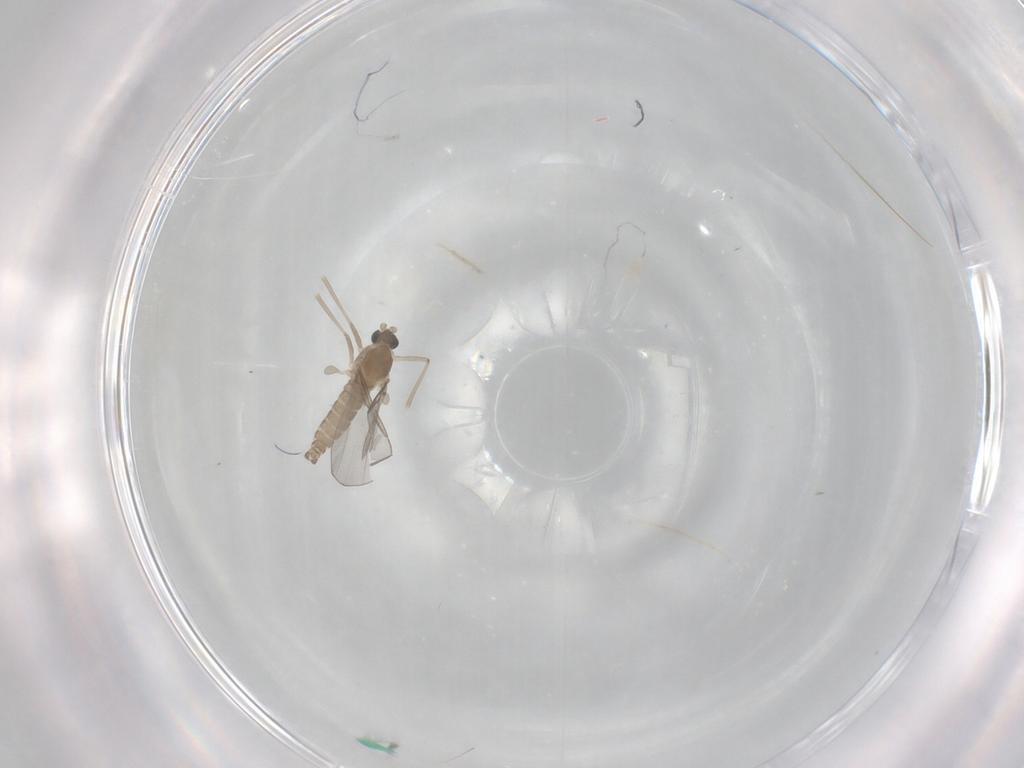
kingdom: Animalia
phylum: Arthropoda
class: Insecta
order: Diptera
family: Cecidomyiidae
